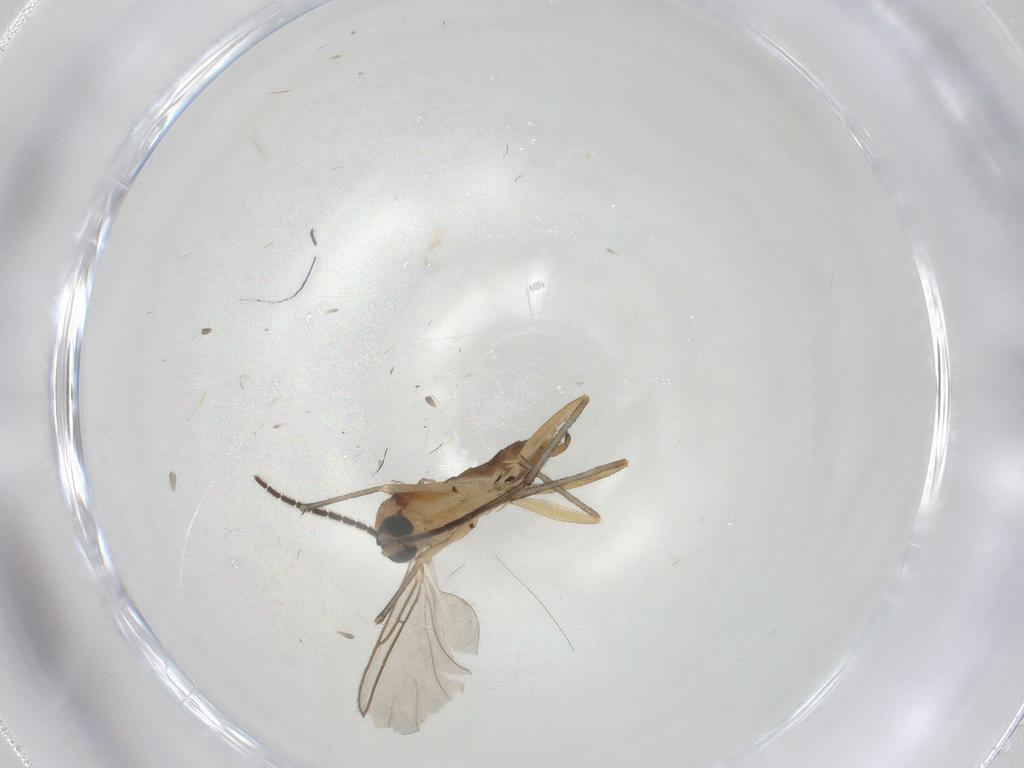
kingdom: Animalia
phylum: Arthropoda
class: Insecta
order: Diptera
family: Sciaridae
